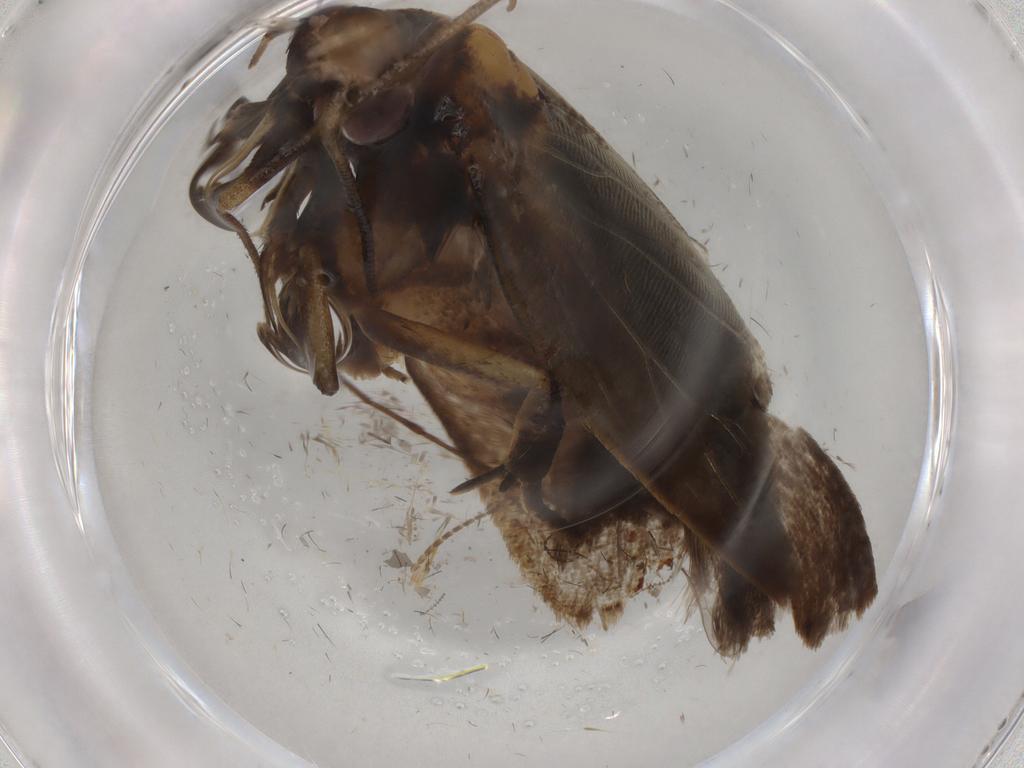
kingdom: Animalia
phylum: Arthropoda
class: Insecta
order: Lepidoptera
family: Gelechiidae
